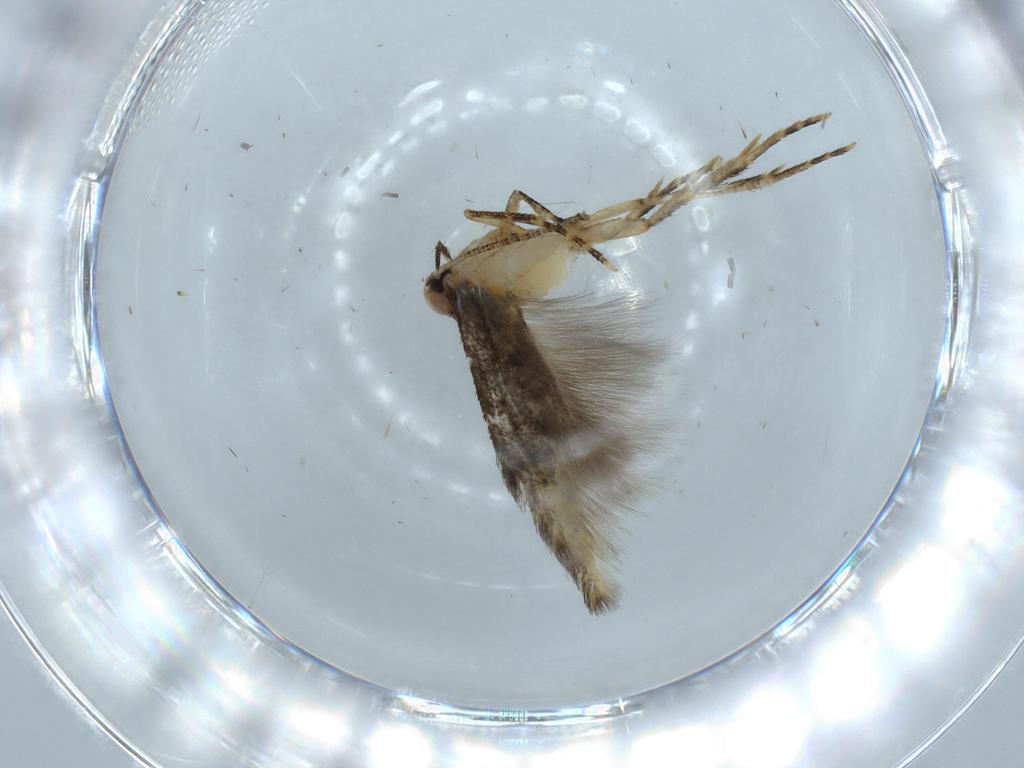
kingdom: Animalia
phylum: Arthropoda
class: Insecta
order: Lepidoptera
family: Stathmopodidae
